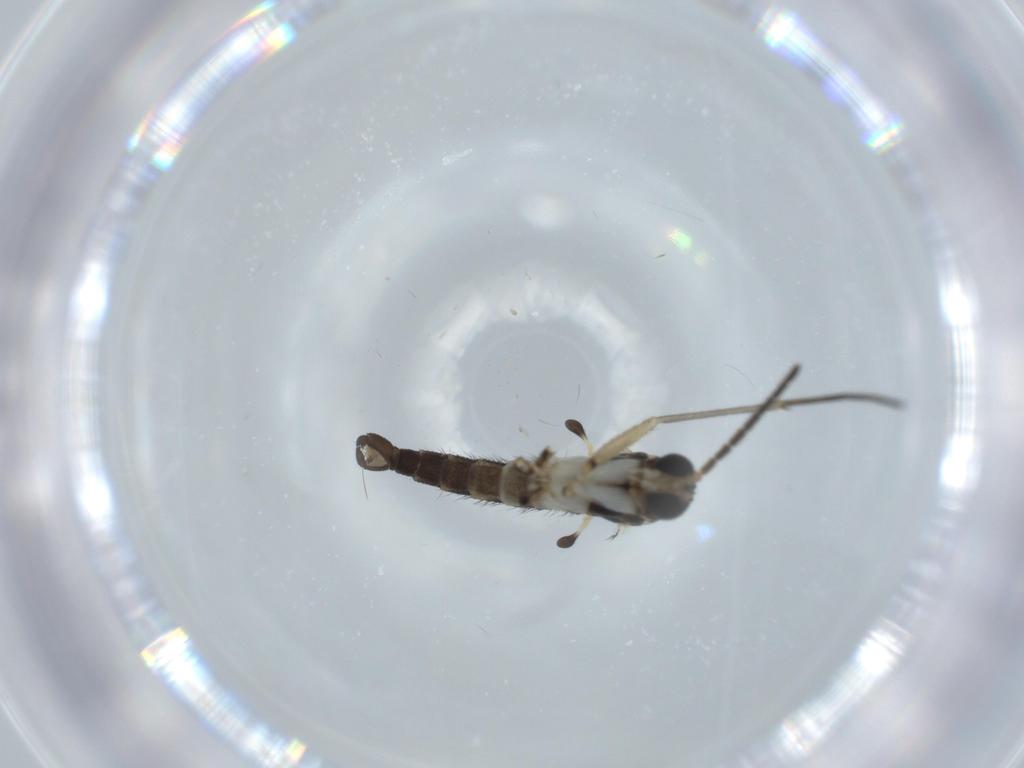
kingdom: Animalia
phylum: Arthropoda
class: Insecta
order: Diptera
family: Sciaridae
